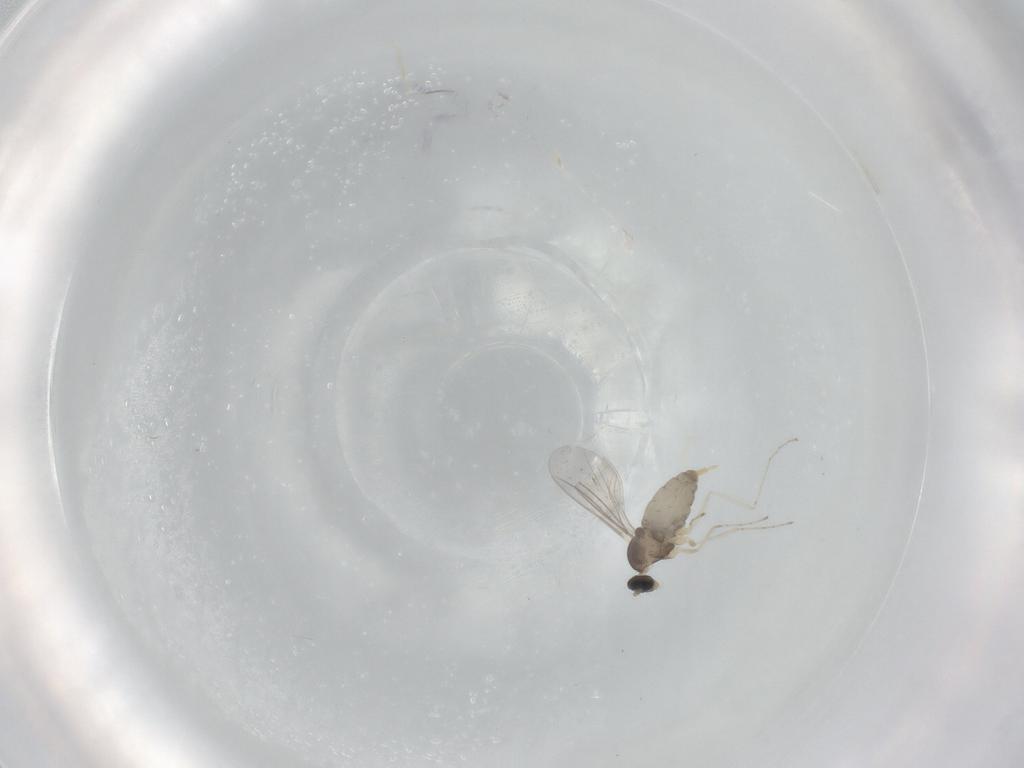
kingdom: Animalia
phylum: Arthropoda
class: Insecta
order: Diptera
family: Cecidomyiidae
